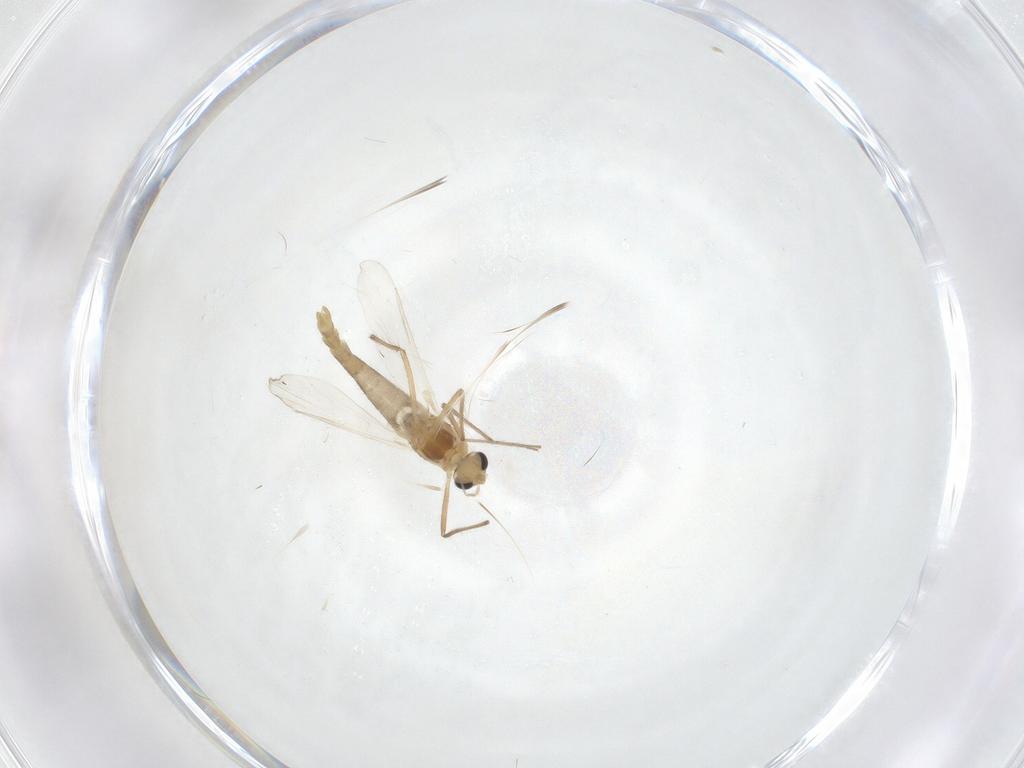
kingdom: Animalia
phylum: Arthropoda
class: Insecta
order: Diptera
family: Chironomidae
